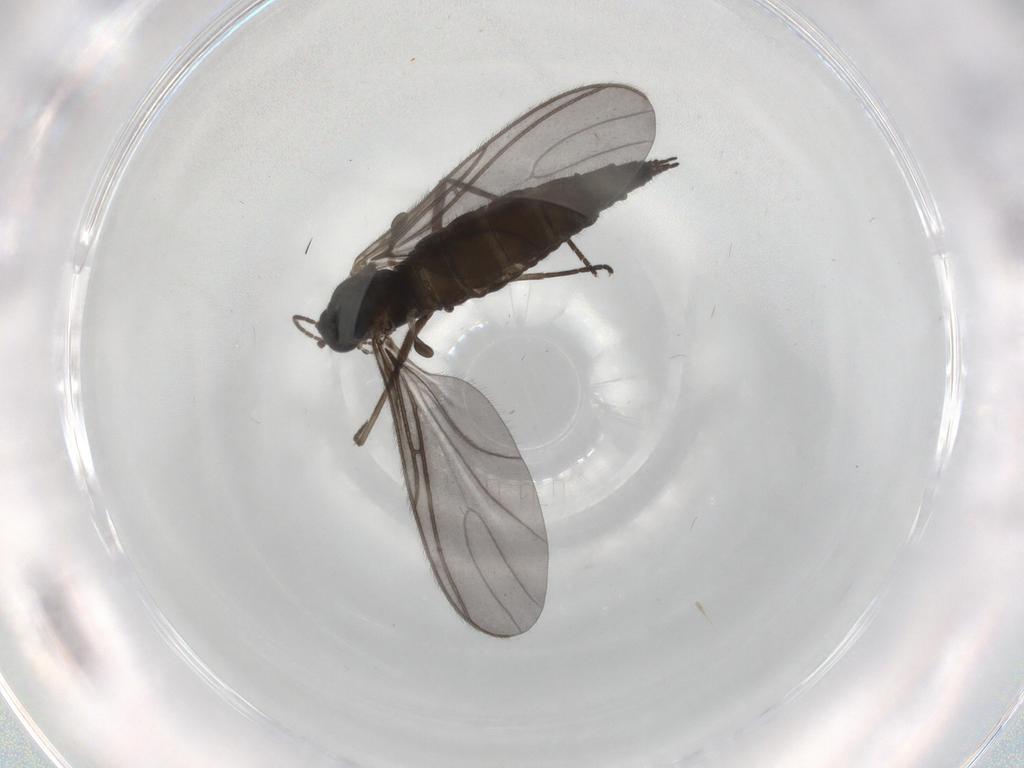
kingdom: Animalia
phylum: Arthropoda
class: Insecta
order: Diptera
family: Sciaridae
